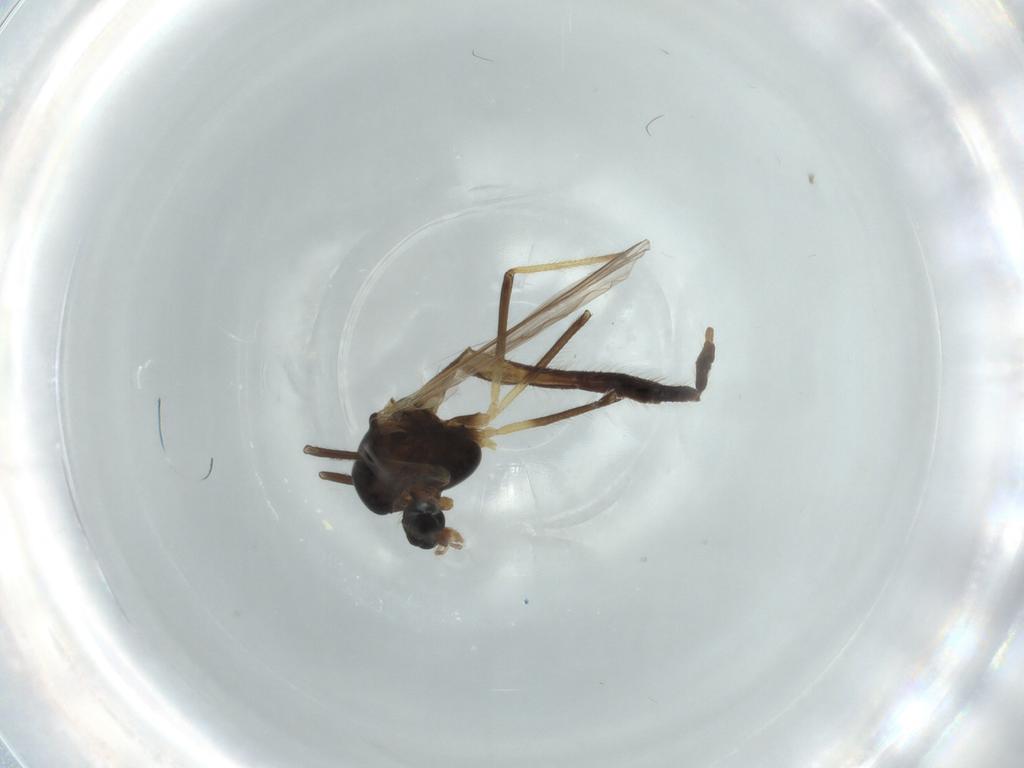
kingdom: Animalia
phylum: Arthropoda
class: Insecta
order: Diptera
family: Chironomidae
